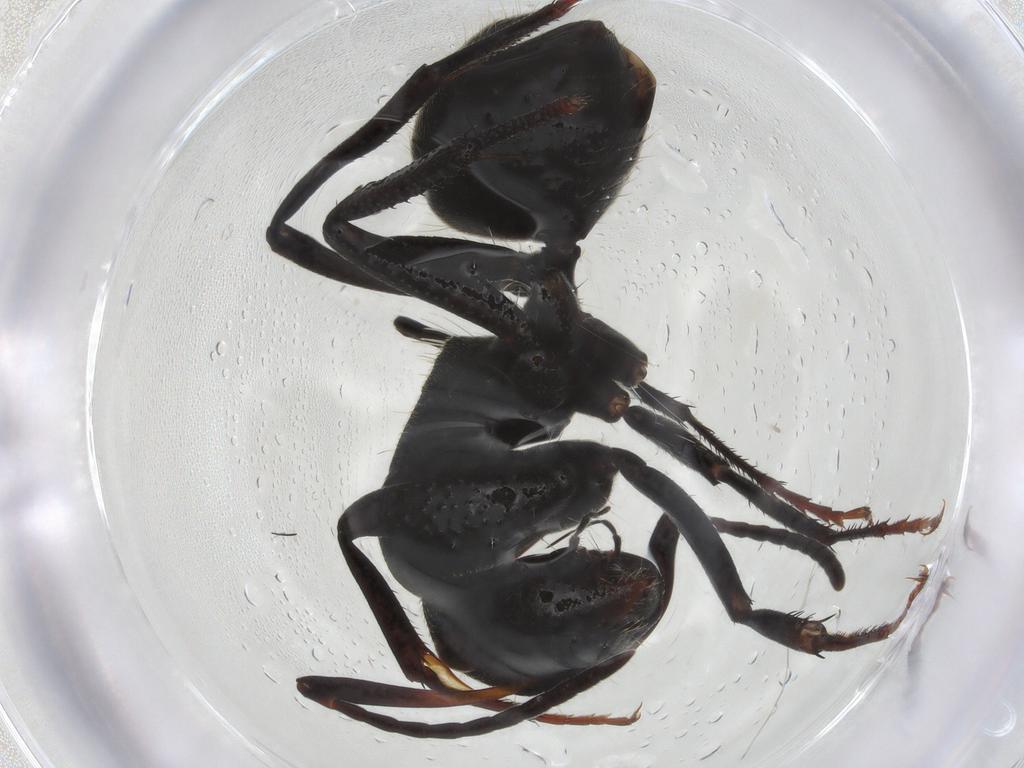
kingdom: Animalia
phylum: Arthropoda
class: Insecta
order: Hymenoptera
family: Formicidae
